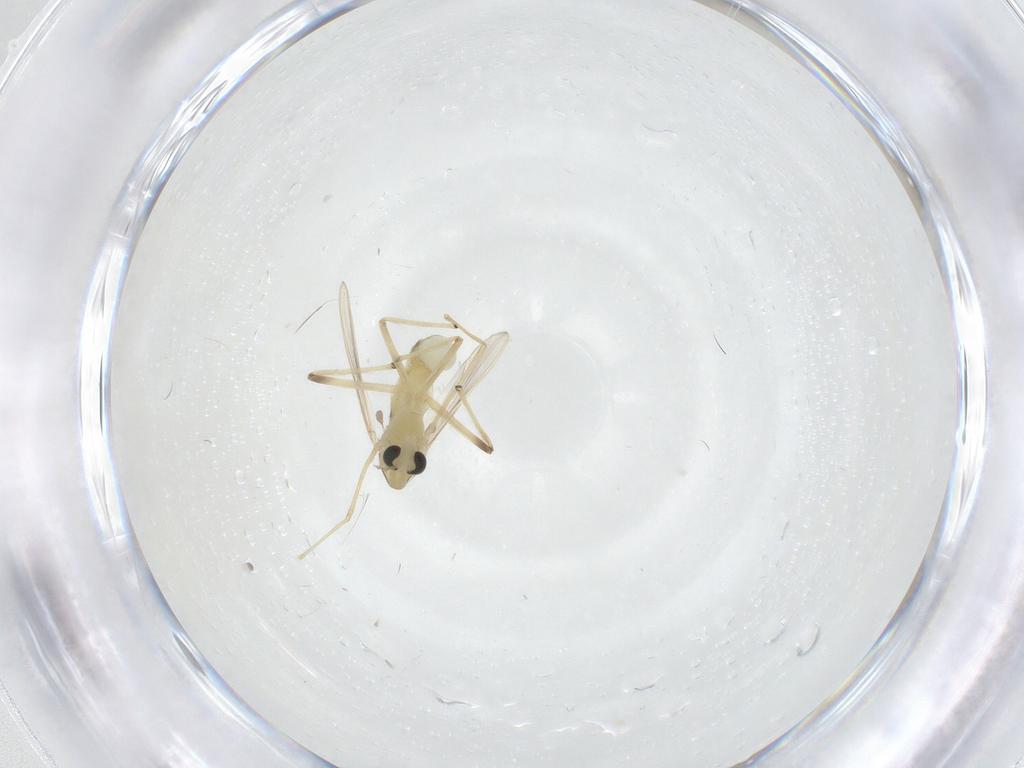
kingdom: Animalia
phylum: Arthropoda
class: Insecta
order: Diptera
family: Chironomidae
